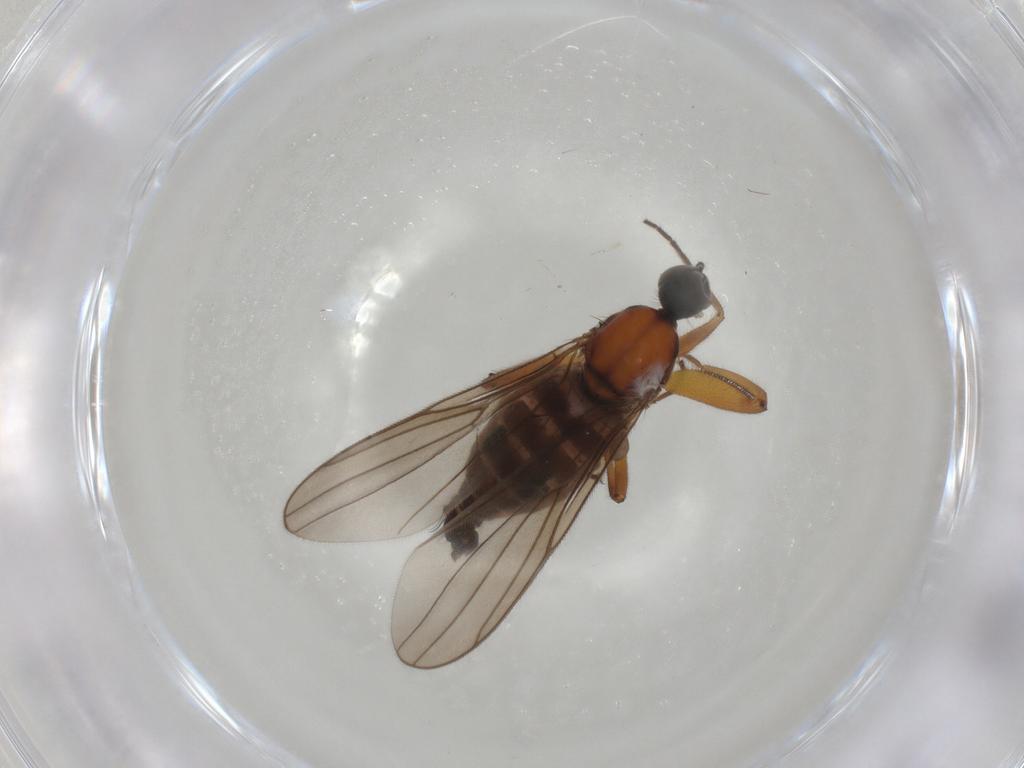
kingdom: Animalia
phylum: Arthropoda
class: Insecta
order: Diptera
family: Hybotidae
